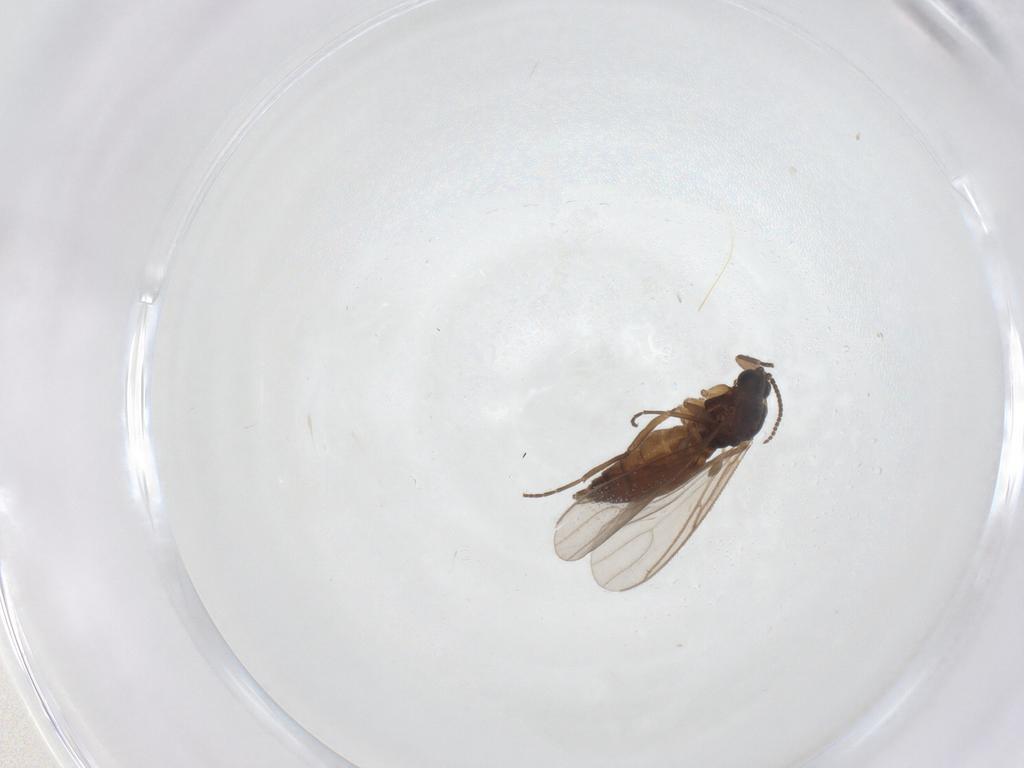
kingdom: Animalia
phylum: Arthropoda
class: Insecta
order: Diptera
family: Sciaridae
